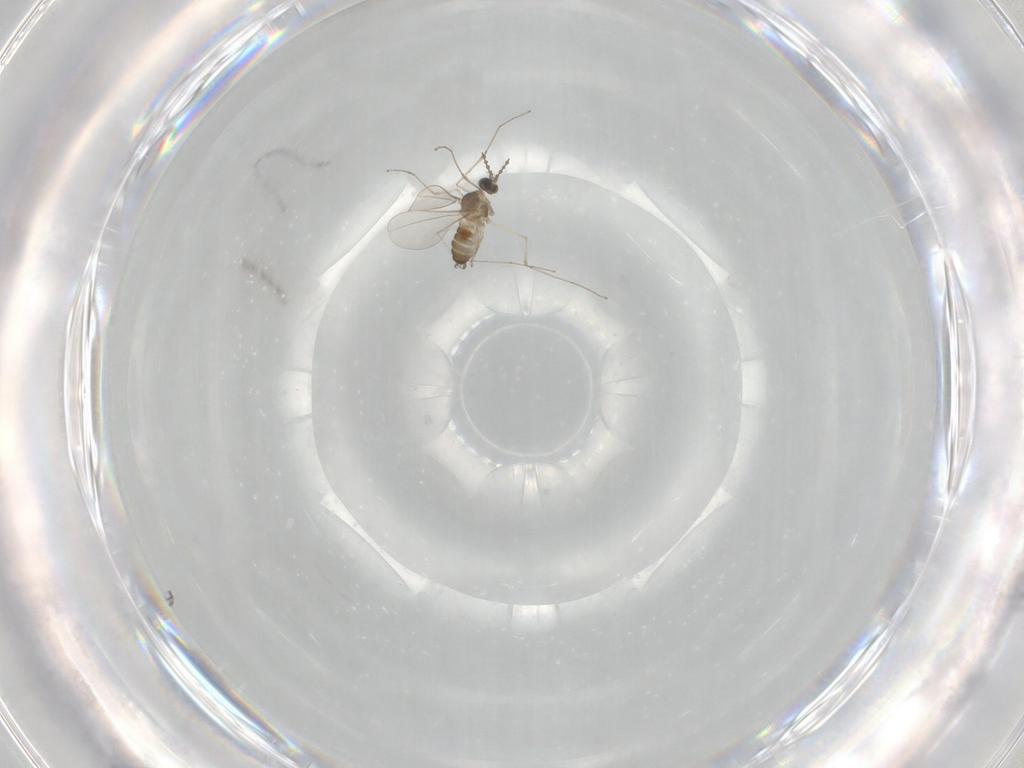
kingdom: Animalia
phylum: Arthropoda
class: Insecta
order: Diptera
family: Cecidomyiidae
